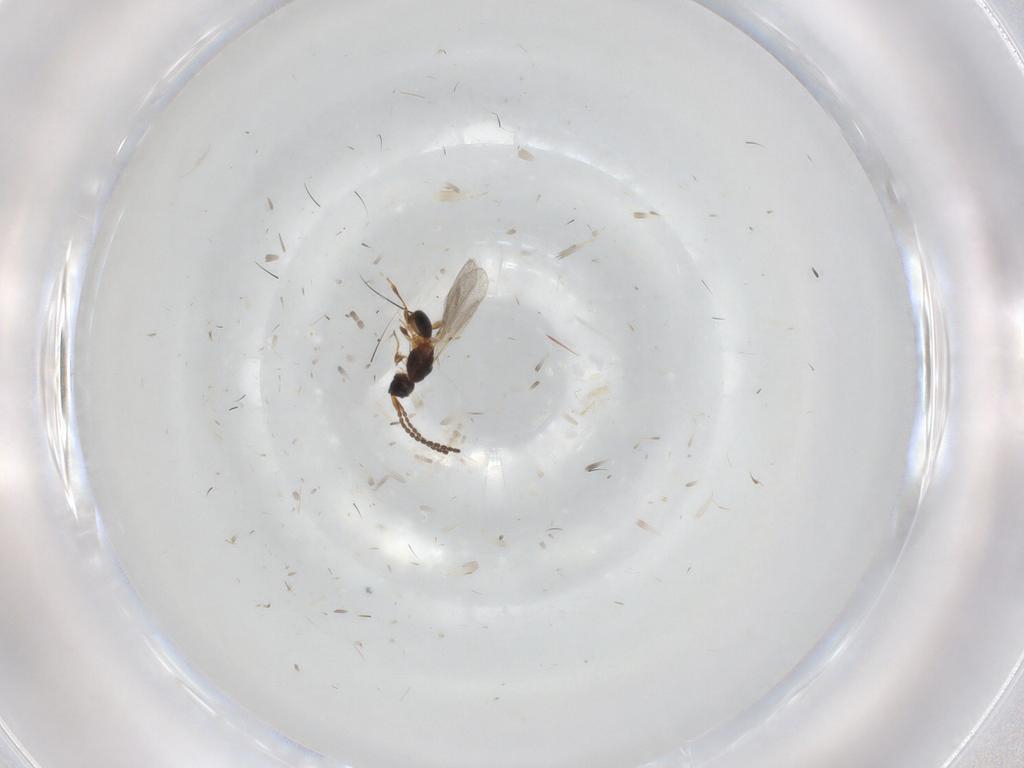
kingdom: Animalia
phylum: Arthropoda
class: Insecta
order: Hymenoptera
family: Diapriidae
